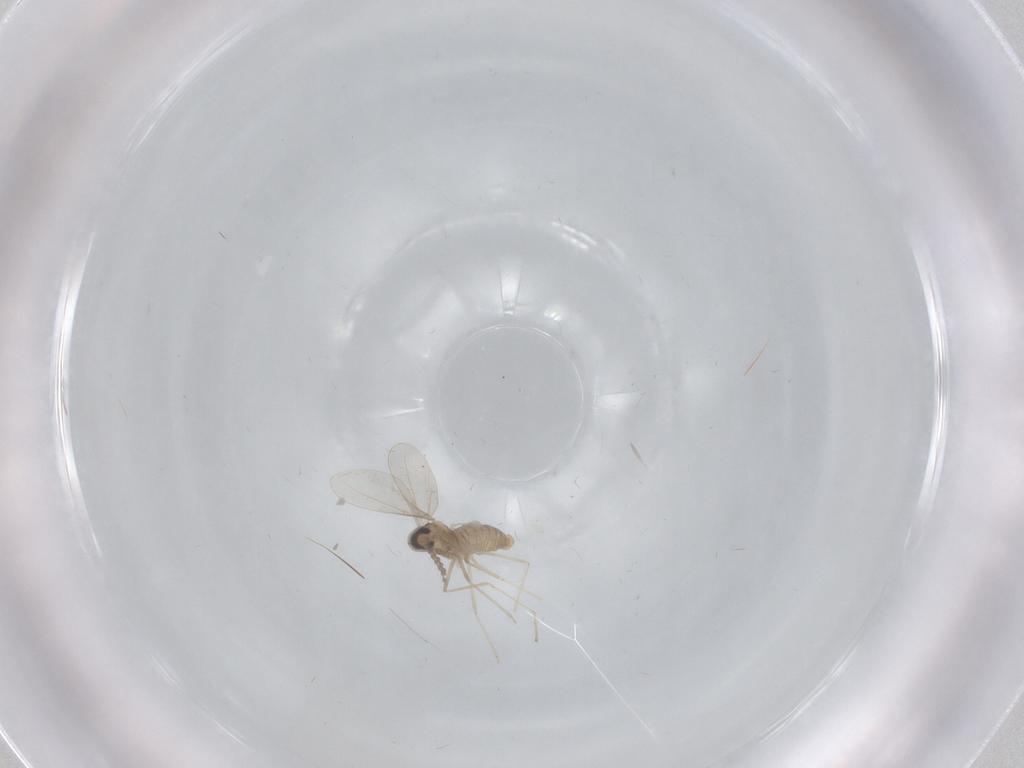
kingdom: Animalia
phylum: Arthropoda
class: Insecta
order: Diptera
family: Cecidomyiidae
